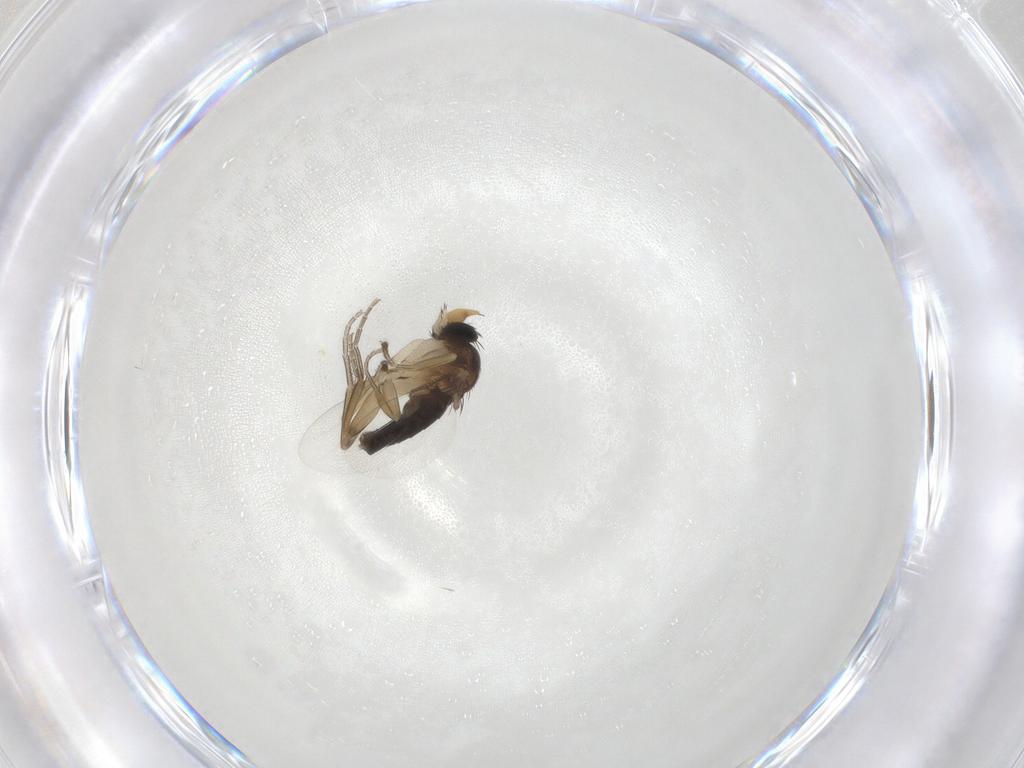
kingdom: Animalia
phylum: Arthropoda
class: Insecta
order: Diptera
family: Phoridae
